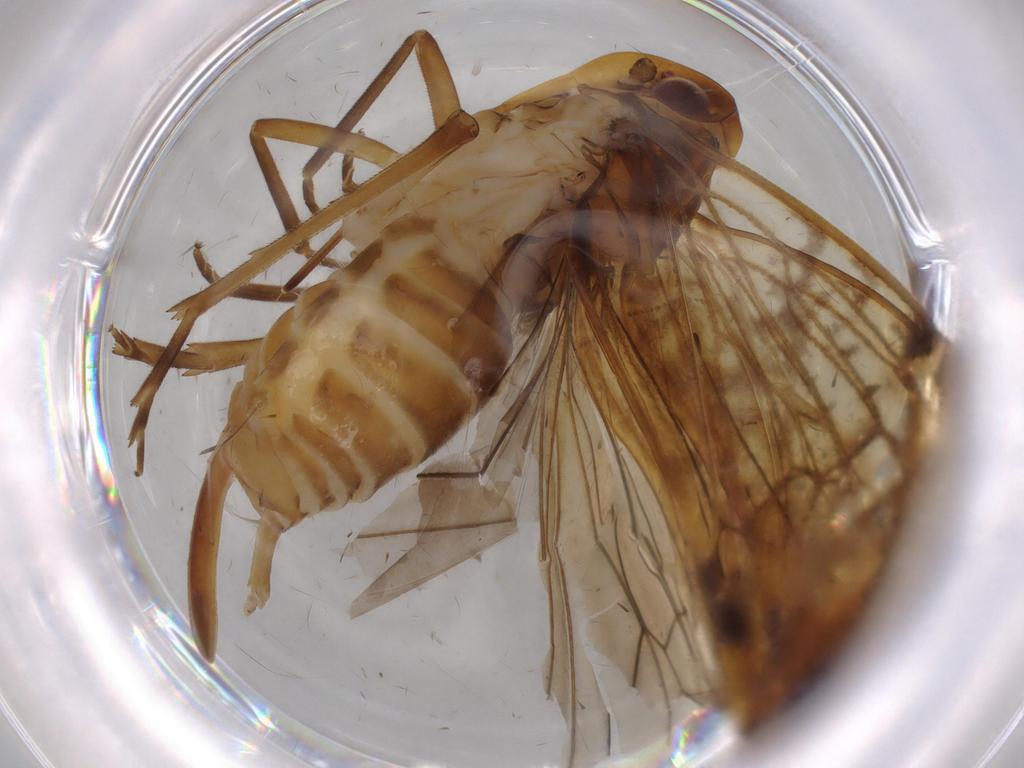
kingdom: Animalia
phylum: Arthropoda
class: Insecta
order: Hemiptera
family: Cixiidae
